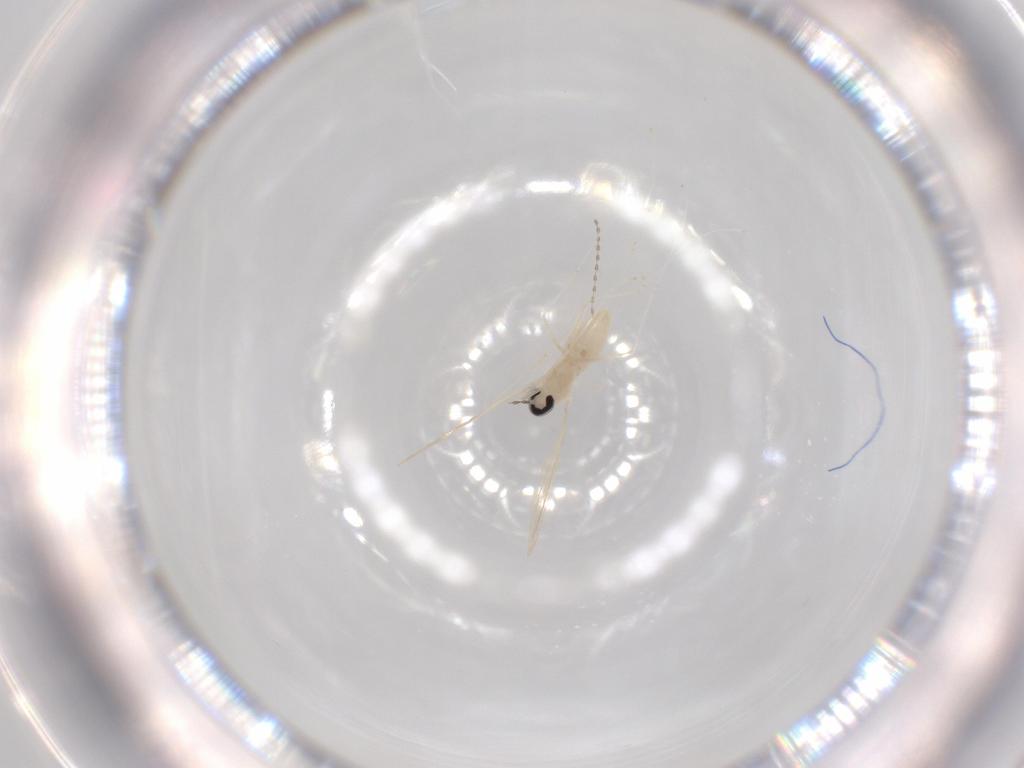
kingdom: Animalia
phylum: Arthropoda
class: Insecta
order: Diptera
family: Cecidomyiidae
